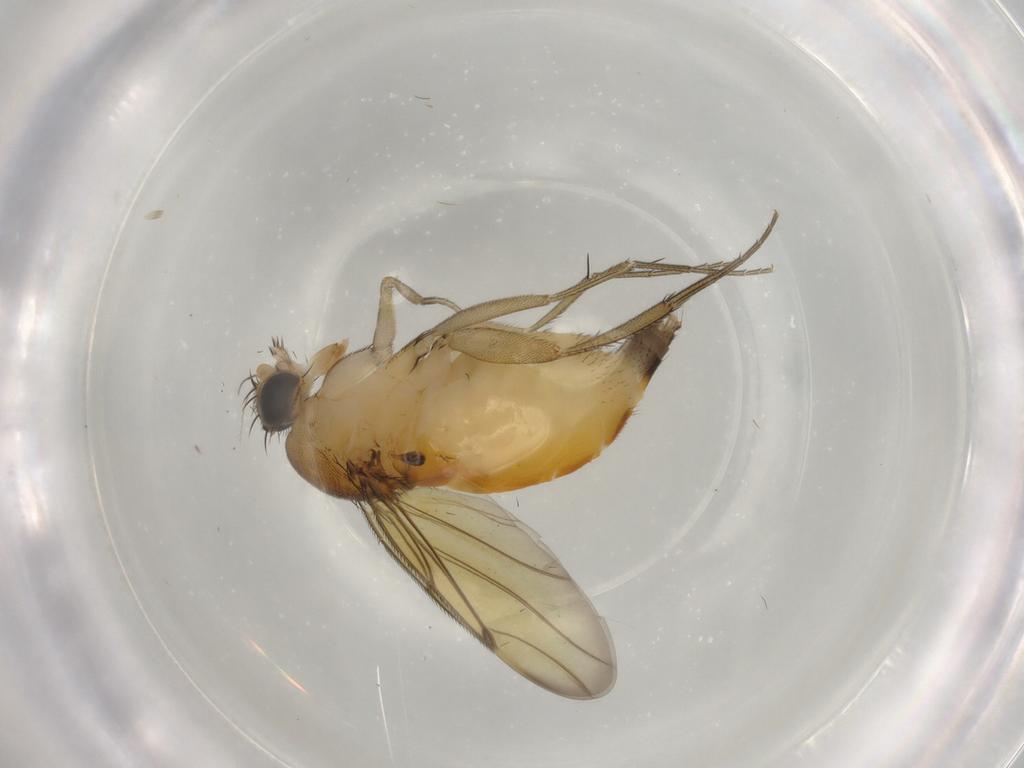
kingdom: Animalia
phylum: Arthropoda
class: Insecta
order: Diptera
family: Phoridae
